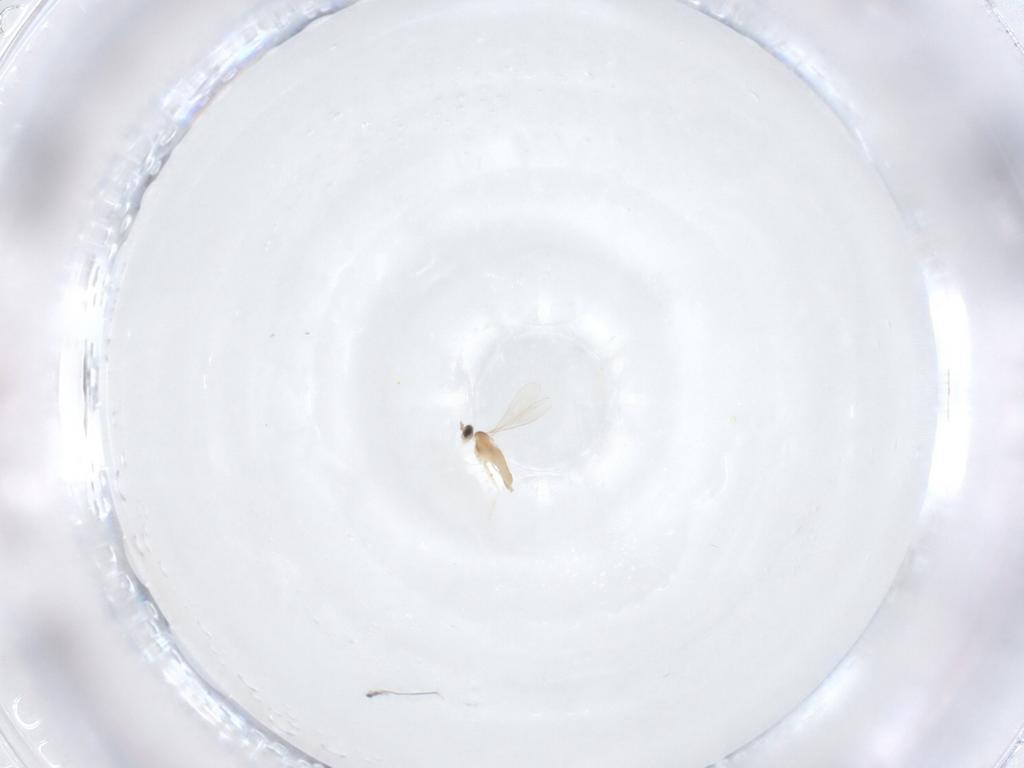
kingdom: Animalia
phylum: Arthropoda
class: Insecta
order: Diptera
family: Cecidomyiidae
